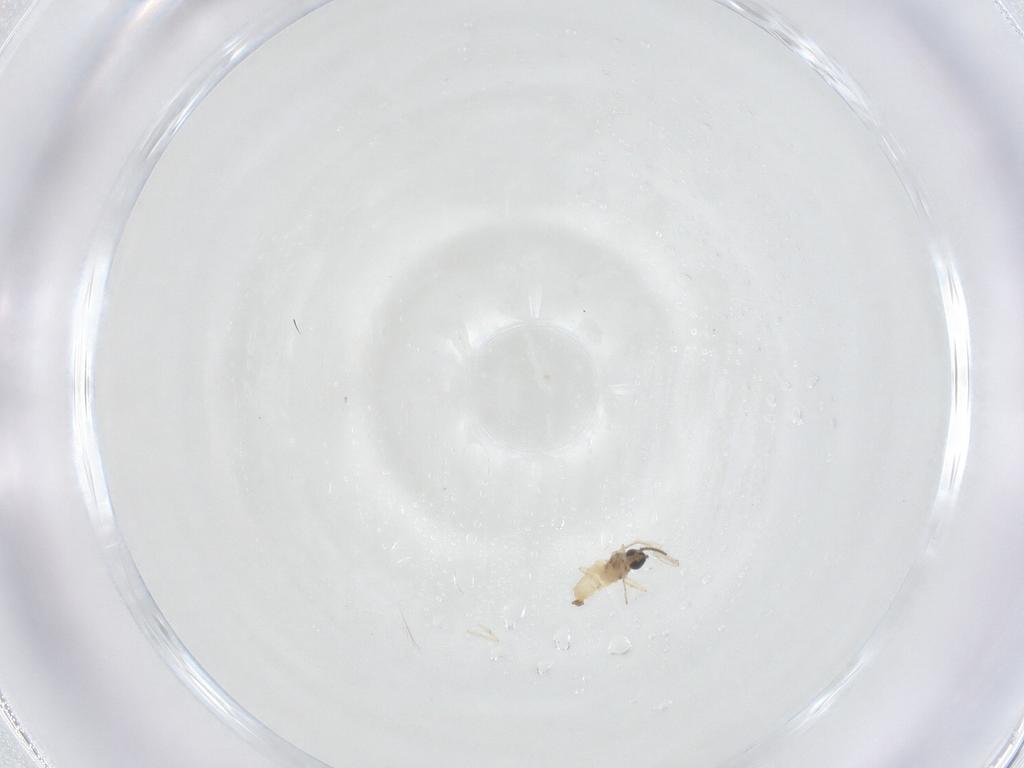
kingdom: Animalia
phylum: Arthropoda
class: Insecta
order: Diptera
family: Cecidomyiidae
